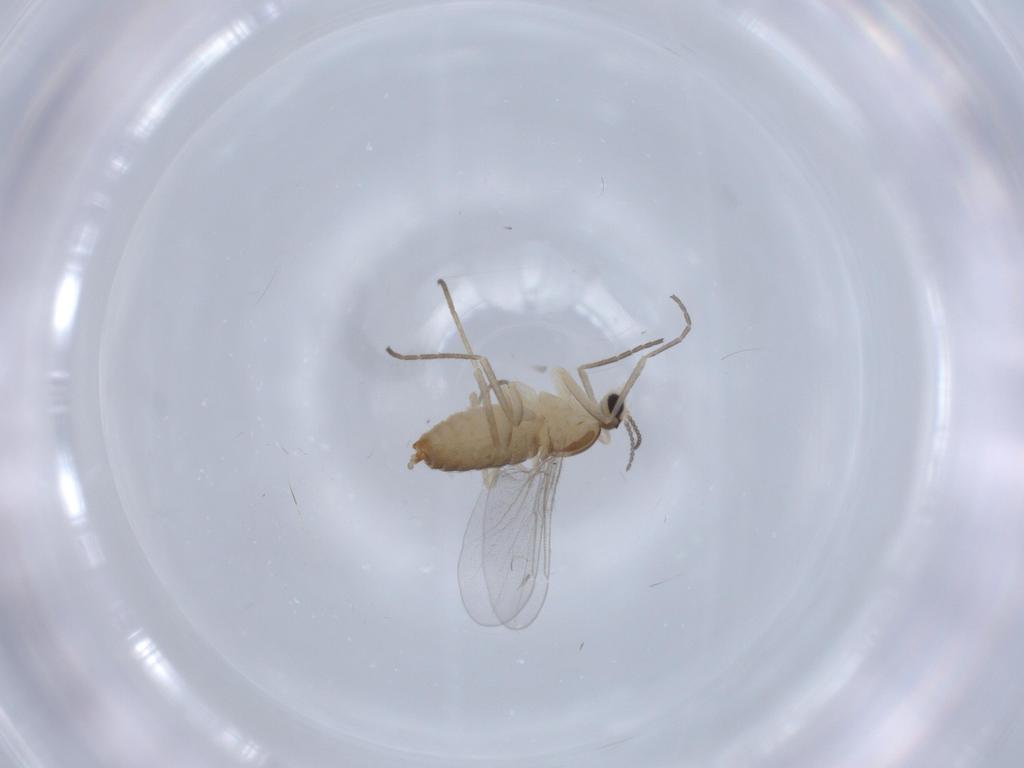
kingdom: Animalia
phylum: Arthropoda
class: Insecta
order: Diptera
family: Cecidomyiidae
